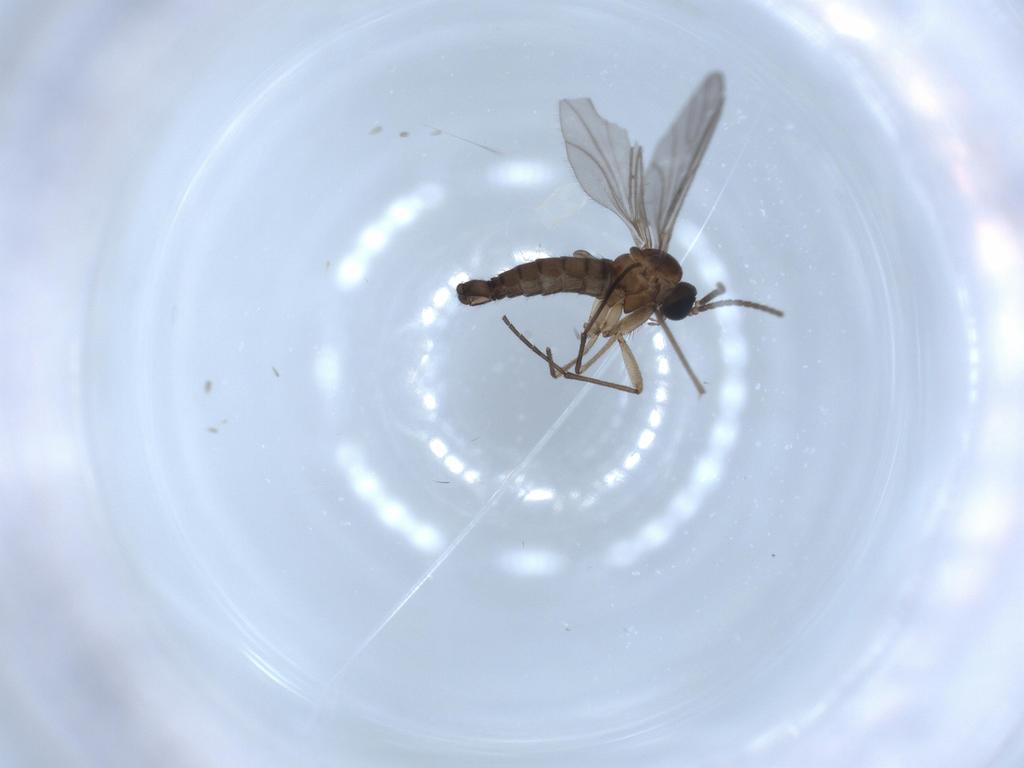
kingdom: Animalia
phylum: Arthropoda
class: Insecta
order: Diptera
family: Sciaridae
